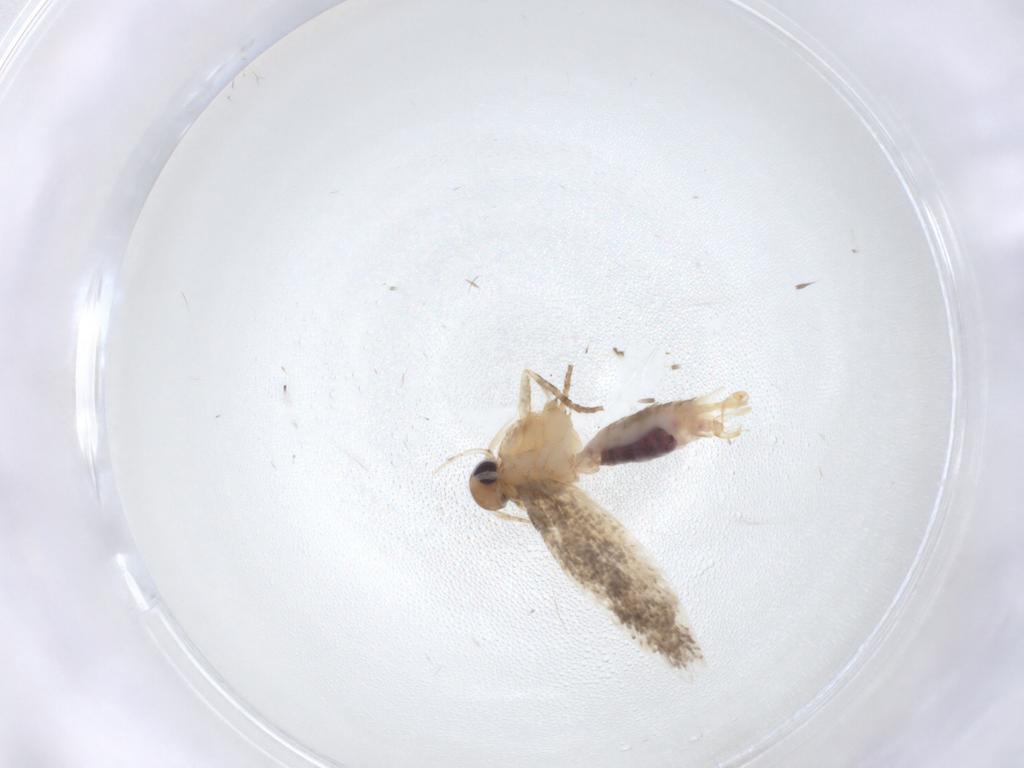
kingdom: Animalia
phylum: Arthropoda
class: Insecta
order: Lepidoptera
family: Gelechiidae
